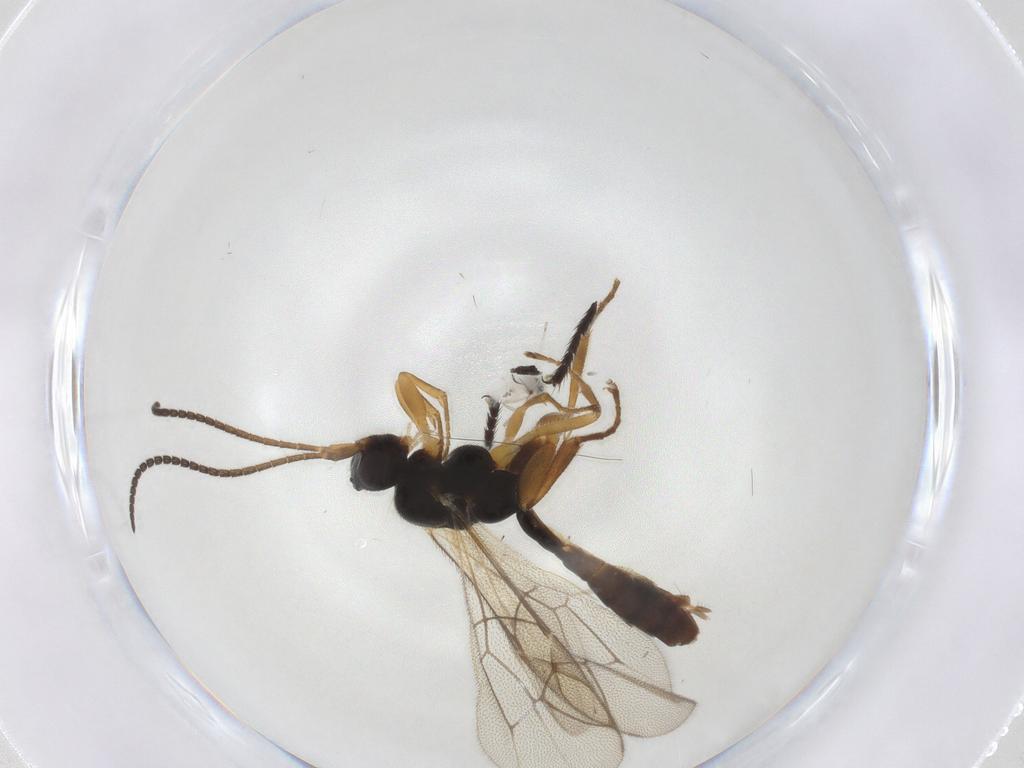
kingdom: Animalia
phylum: Arthropoda
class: Insecta
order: Hymenoptera
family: Ichneumonidae
